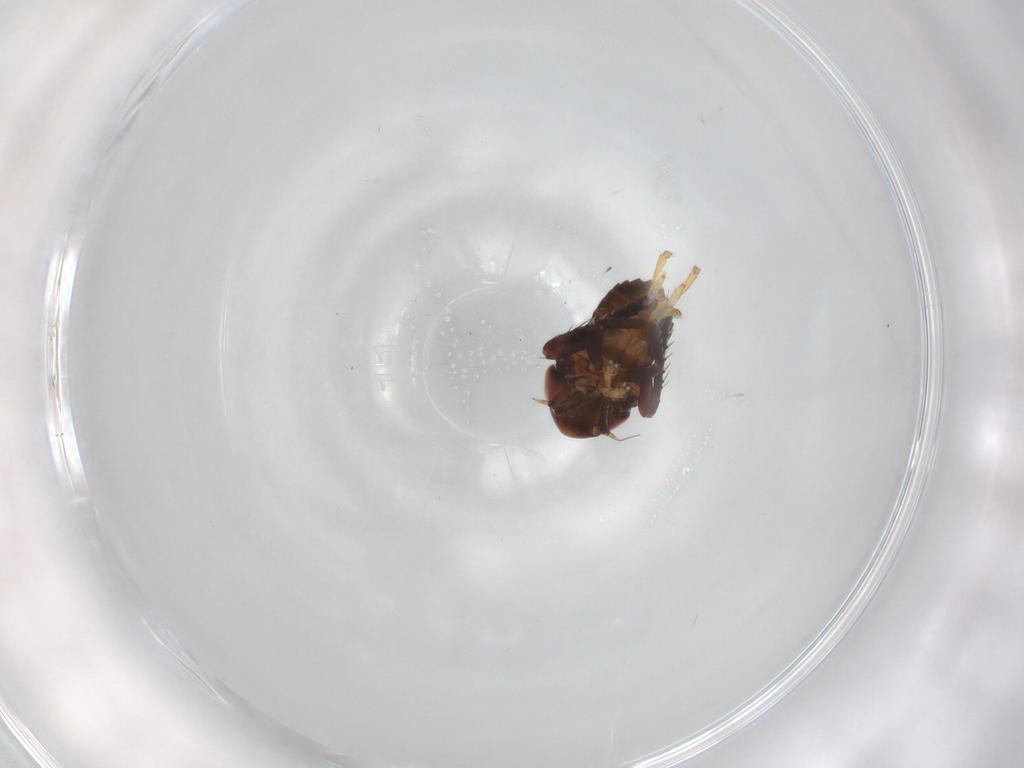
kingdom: Animalia
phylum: Arthropoda
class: Insecta
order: Hemiptera
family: Cicadellidae
